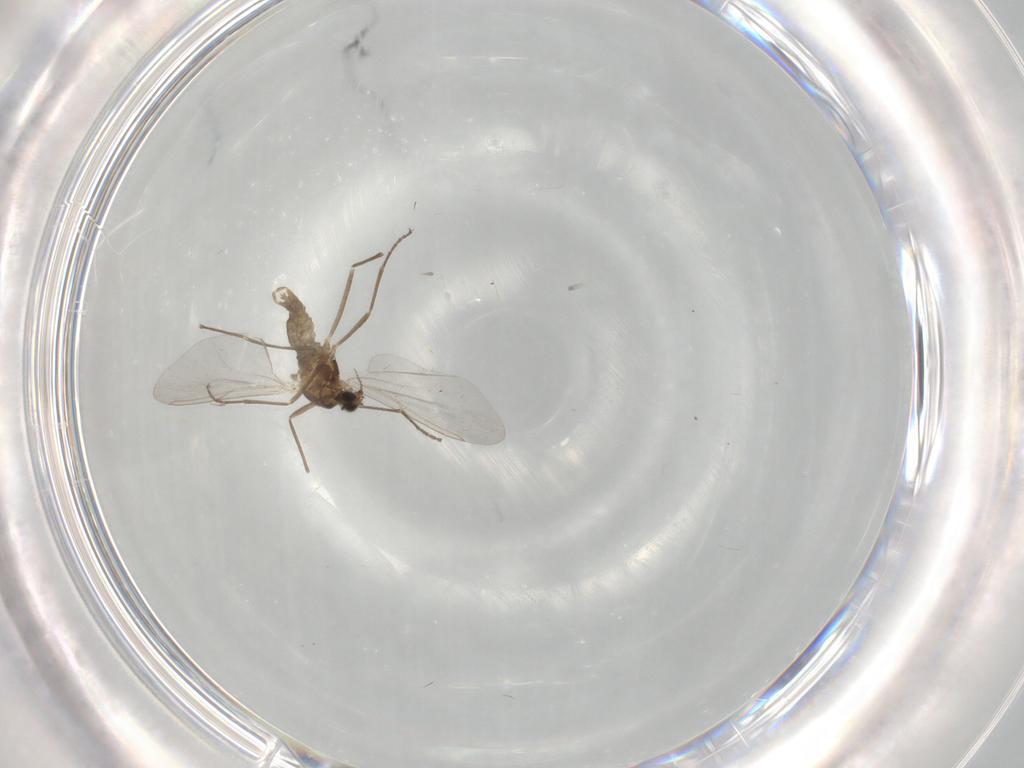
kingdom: Animalia
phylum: Arthropoda
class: Insecta
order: Diptera
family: Cecidomyiidae
